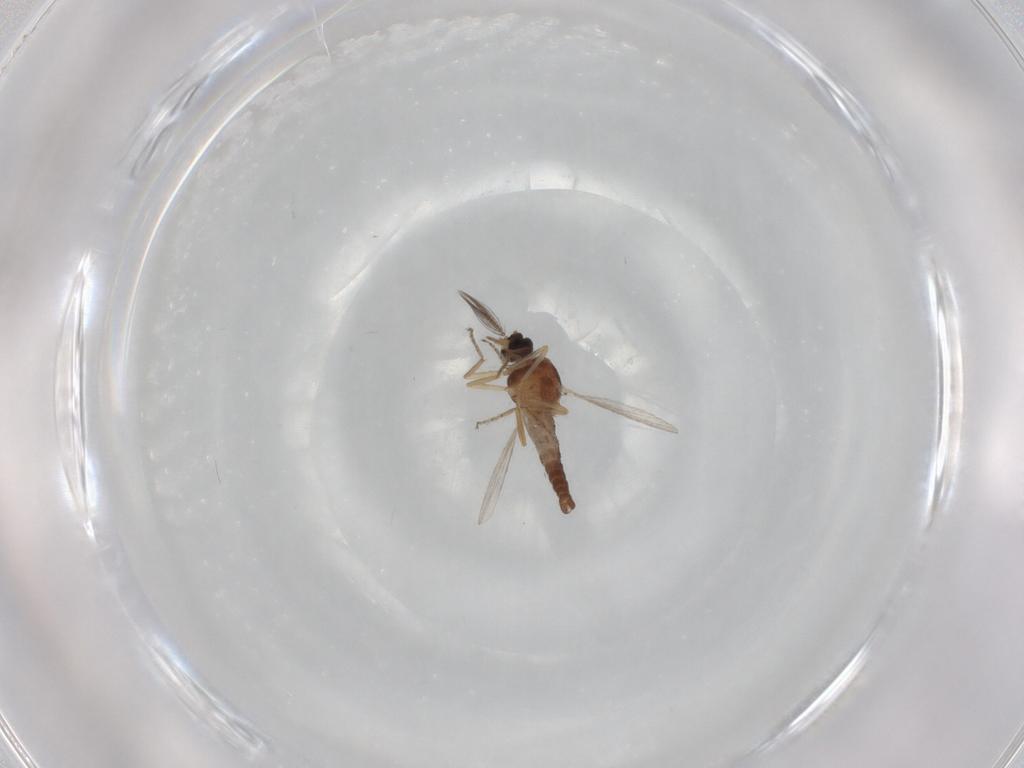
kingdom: Animalia
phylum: Arthropoda
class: Insecta
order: Diptera
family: Ceratopogonidae
